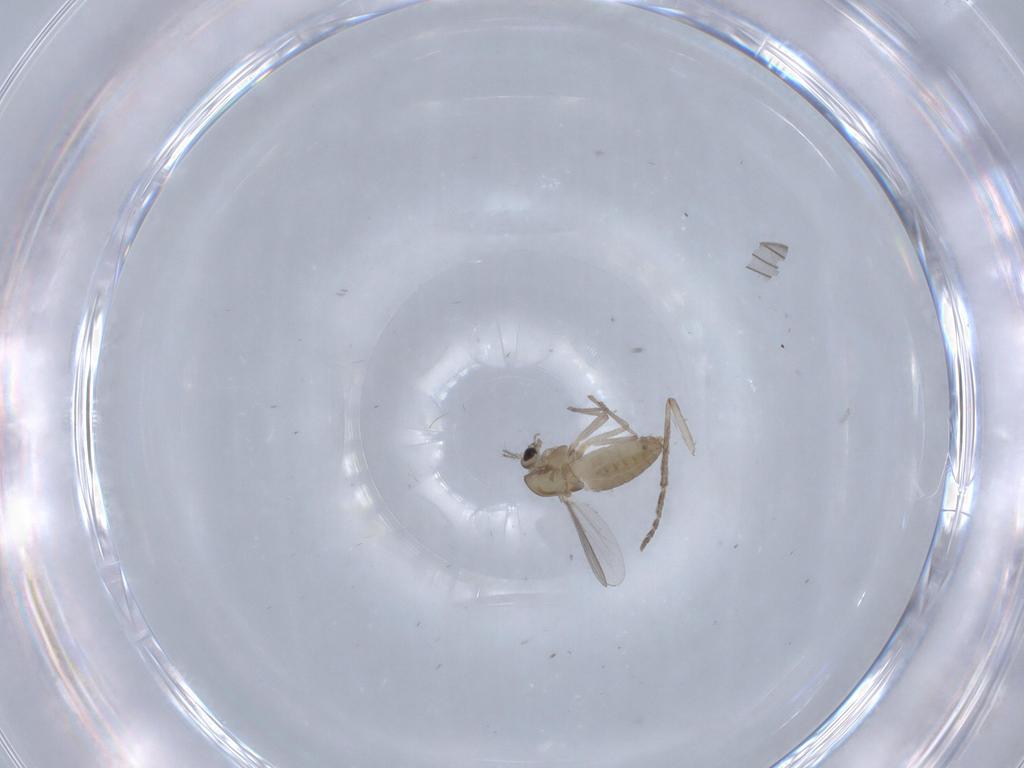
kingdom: Animalia
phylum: Arthropoda
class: Insecta
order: Diptera
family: Chironomidae
